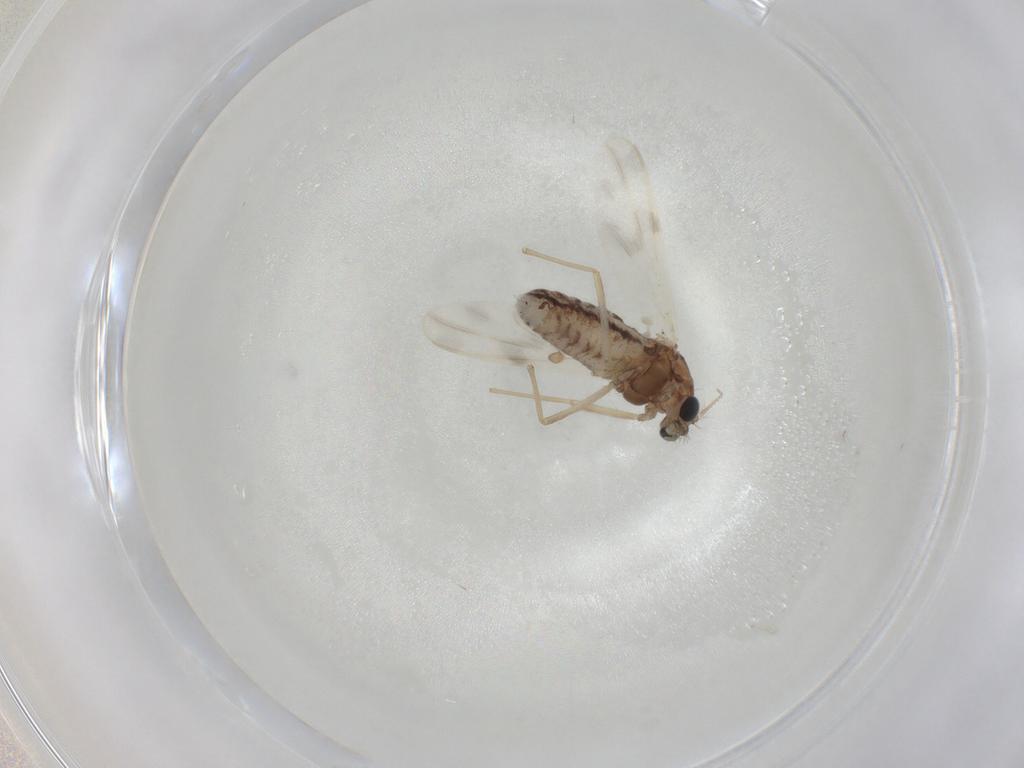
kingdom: Animalia
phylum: Arthropoda
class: Insecta
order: Diptera
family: Chironomidae
